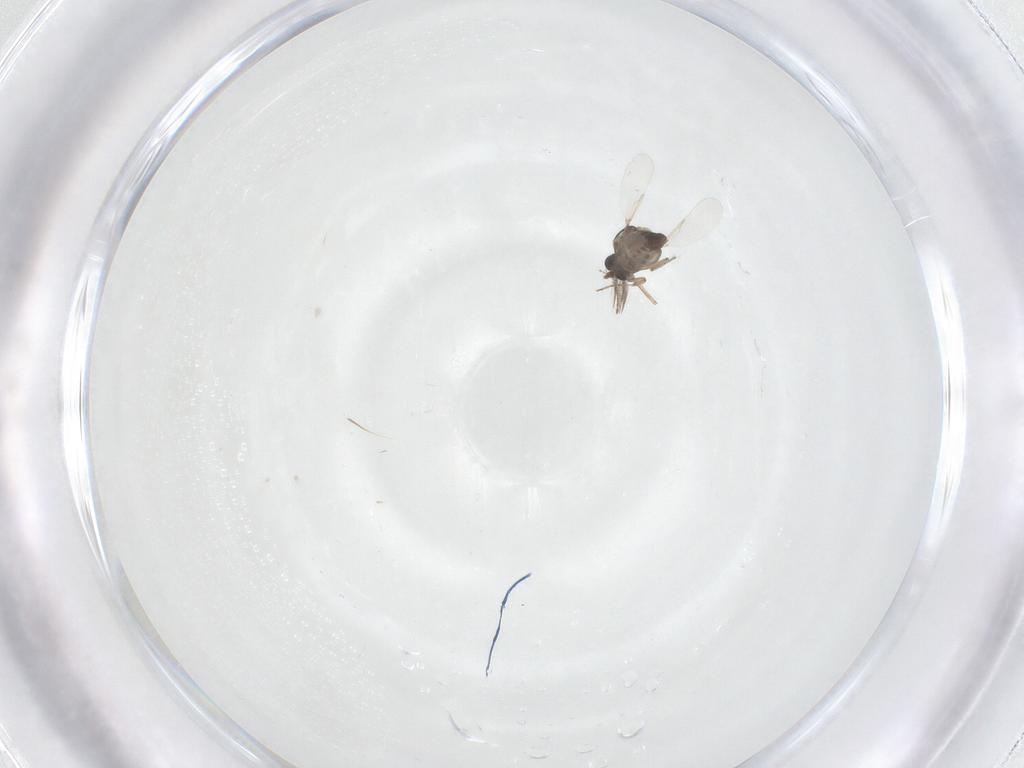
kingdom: Animalia
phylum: Arthropoda
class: Insecta
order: Diptera
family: Ceratopogonidae
